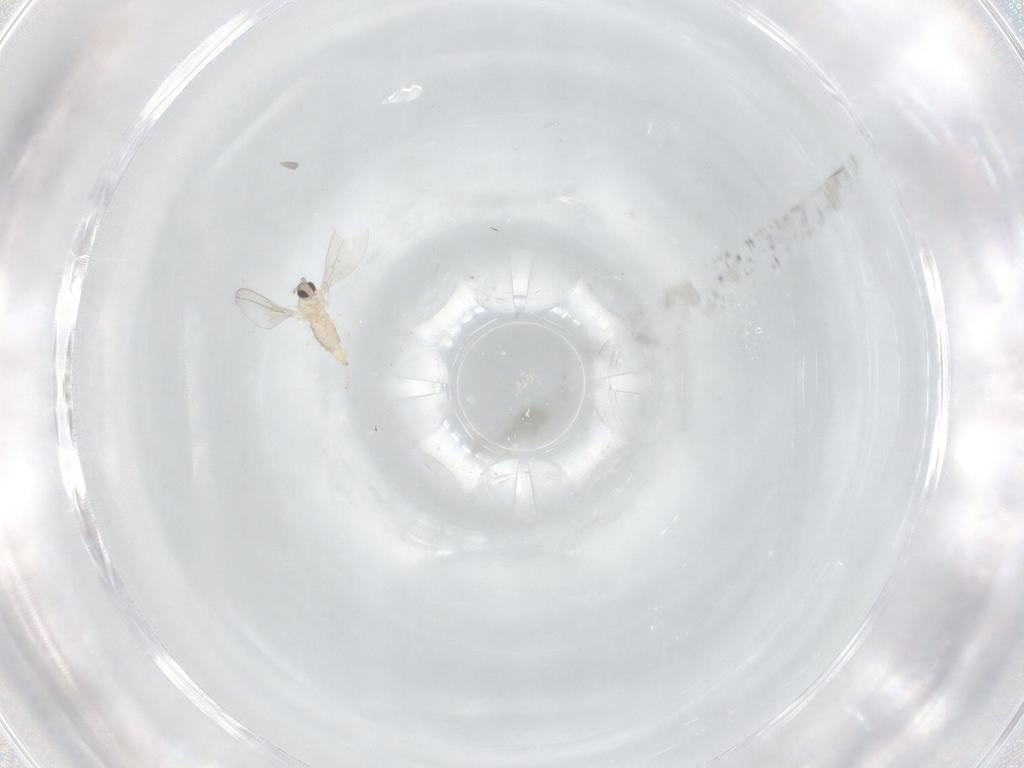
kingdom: Animalia
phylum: Arthropoda
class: Insecta
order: Diptera
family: Cecidomyiidae
